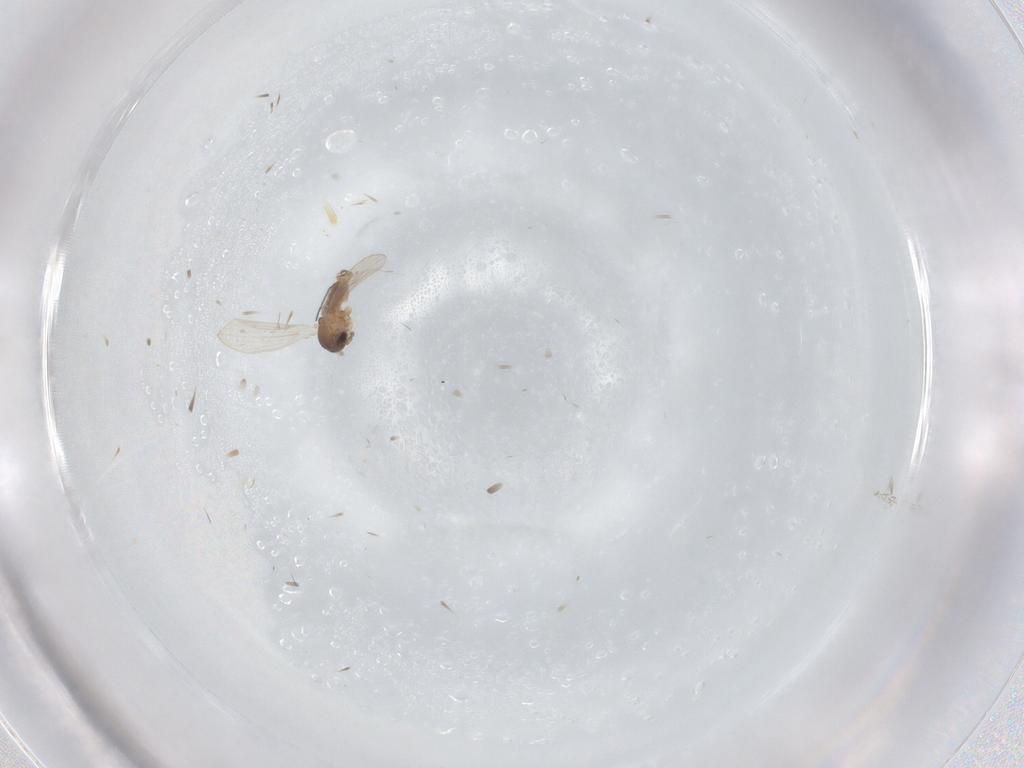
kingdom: Animalia
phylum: Arthropoda
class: Insecta
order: Diptera
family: Psychodidae
